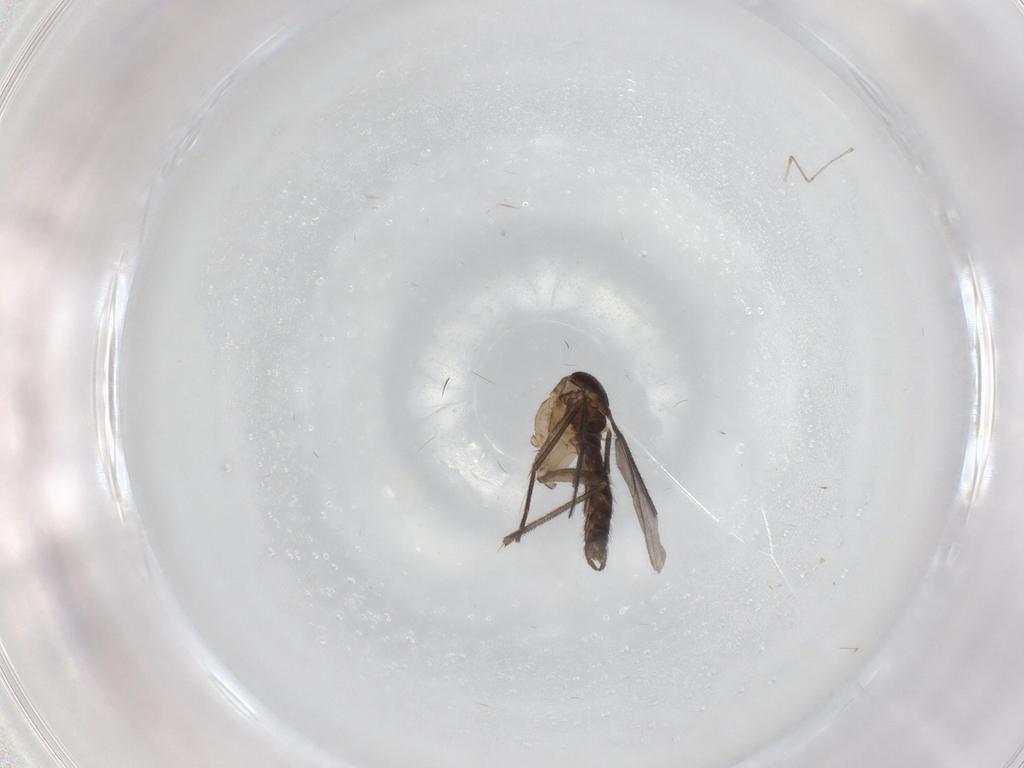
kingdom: Animalia
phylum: Arthropoda
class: Insecta
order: Diptera
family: Sciaridae
